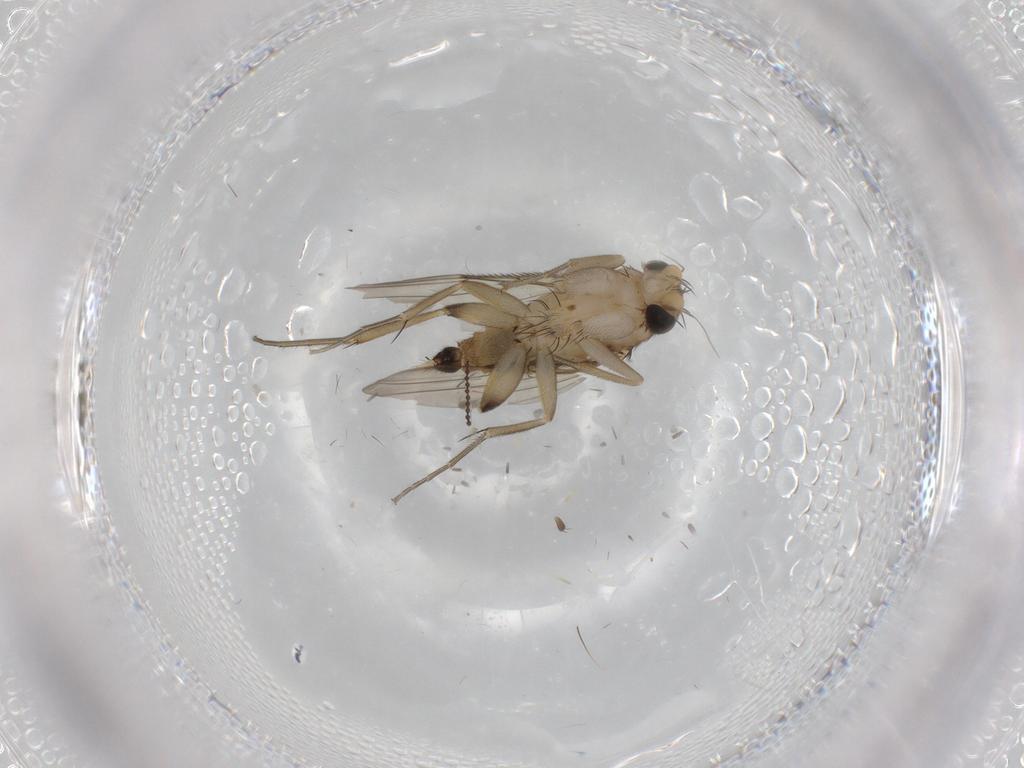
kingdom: Animalia
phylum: Arthropoda
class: Insecta
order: Diptera
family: Phoridae
